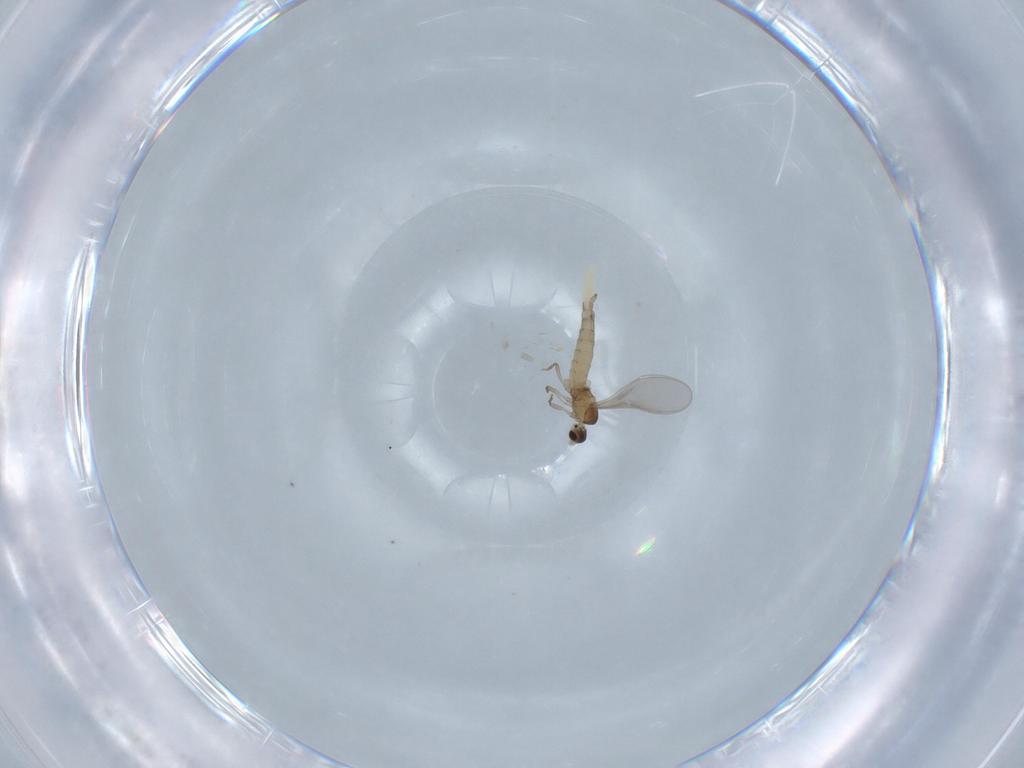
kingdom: Animalia
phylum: Arthropoda
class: Insecta
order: Diptera
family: Cecidomyiidae
